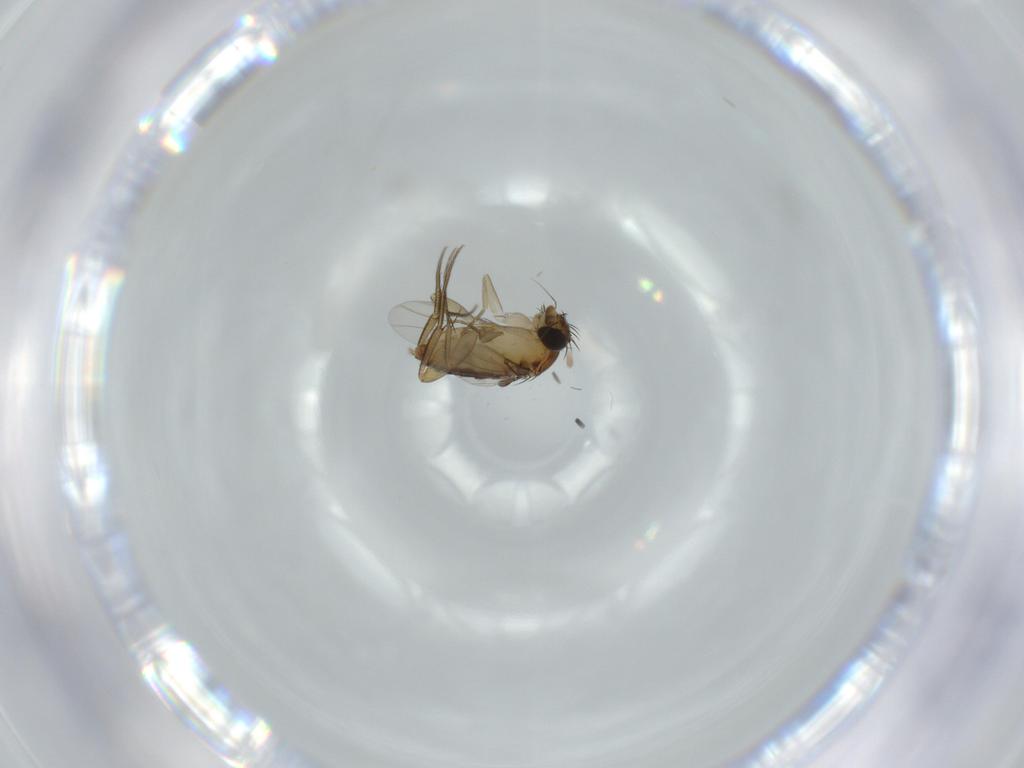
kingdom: Animalia
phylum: Arthropoda
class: Insecta
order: Diptera
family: Phoridae
